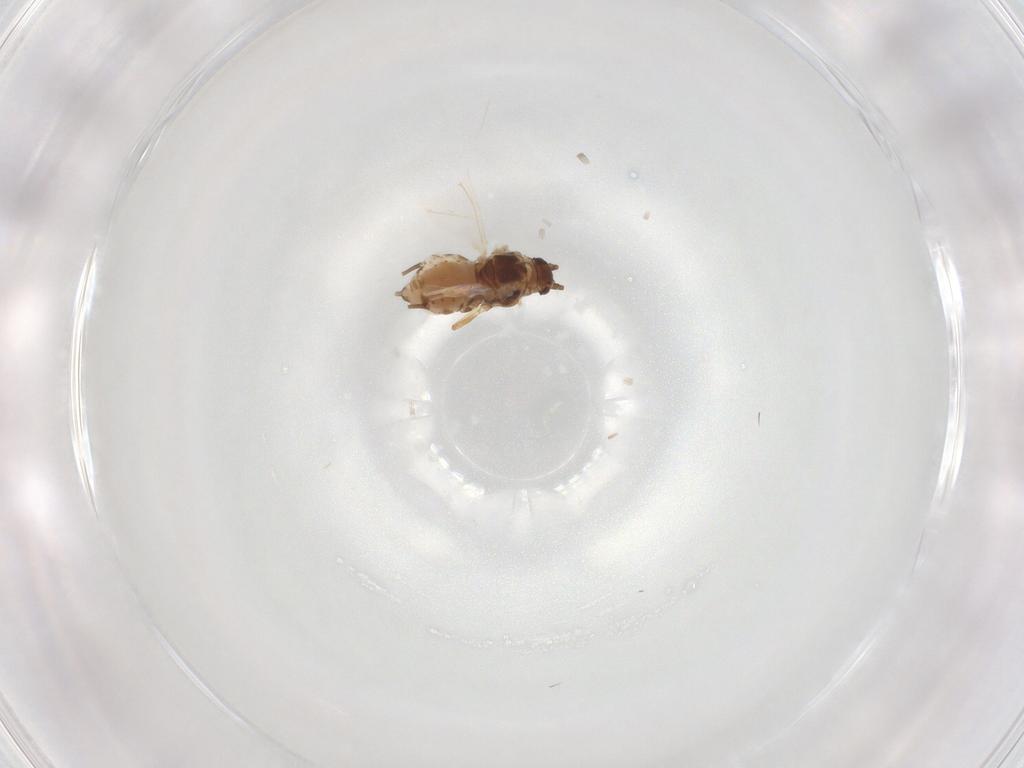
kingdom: Animalia
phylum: Arthropoda
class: Insecta
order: Hemiptera
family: Aphididae
